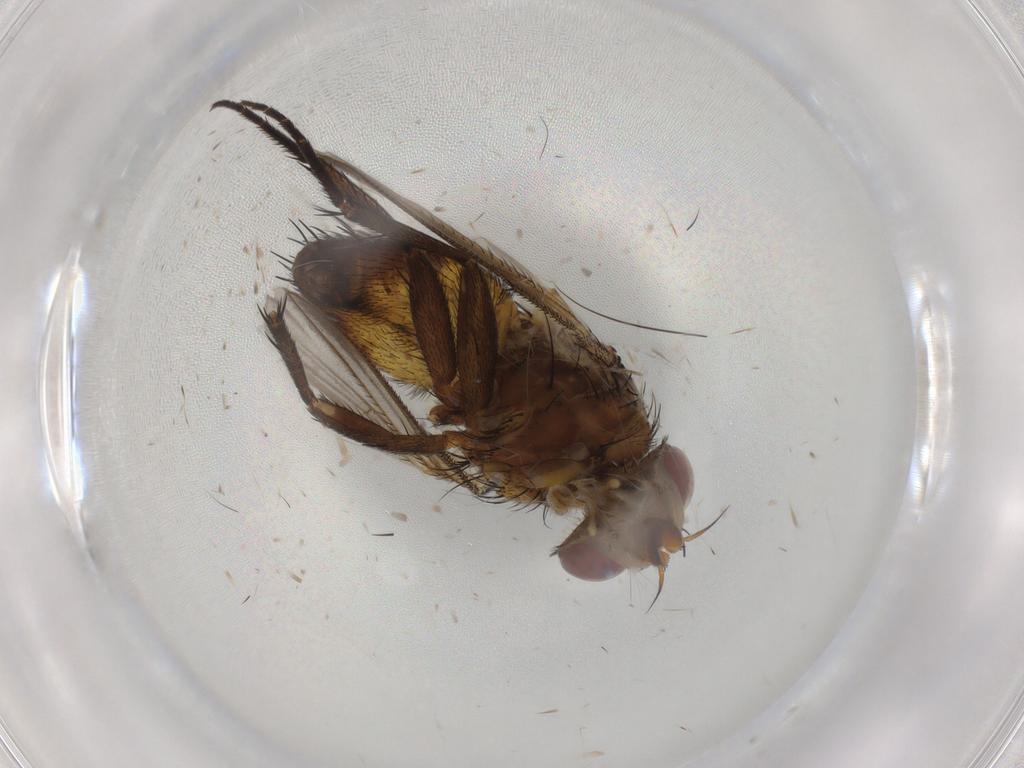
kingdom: Animalia
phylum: Arthropoda
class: Insecta
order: Diptera
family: Tachinidae
